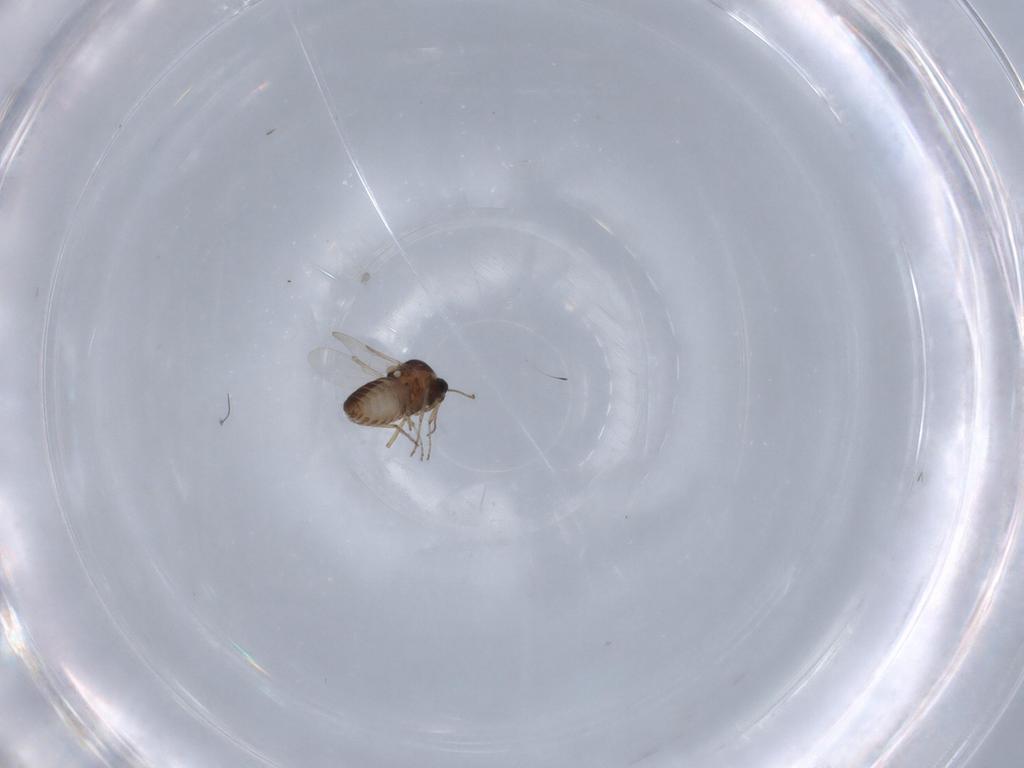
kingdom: Animalia
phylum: Arthropoda
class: Insecta
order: Diptera
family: Ceratopogonidae
